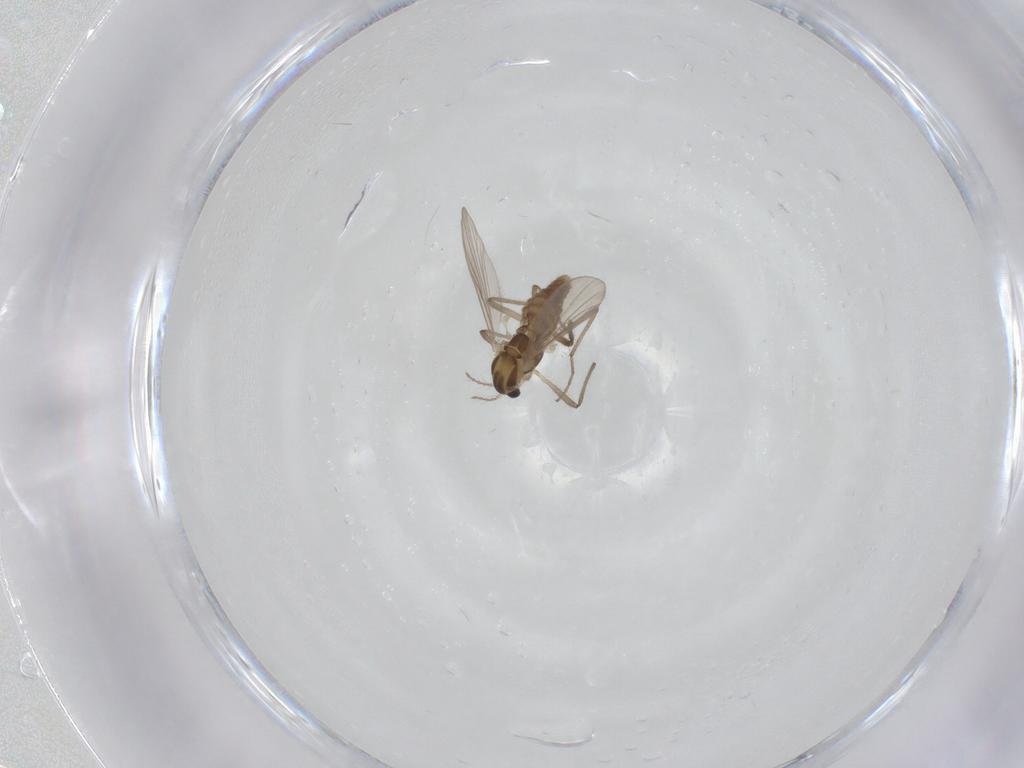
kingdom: Animalia
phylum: Arthropoda
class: Insecta
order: Diptera
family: Chironomidae
